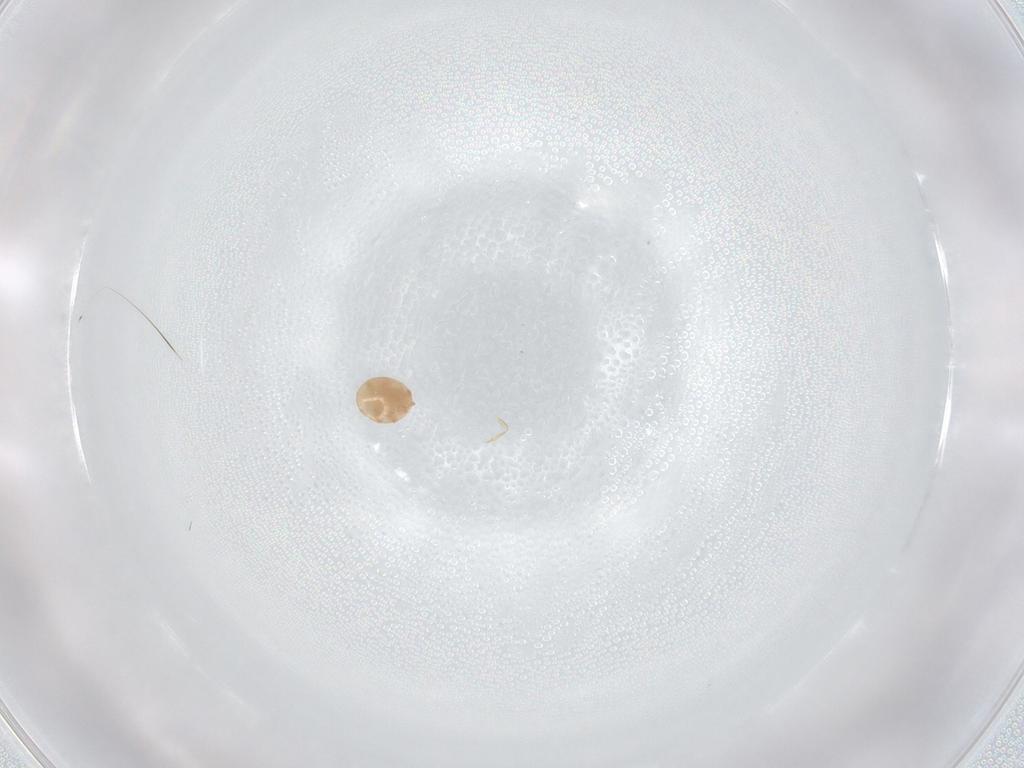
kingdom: Animalia
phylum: Arthropoda
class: Arachnida
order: Mesostigmata
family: Trematuridae
